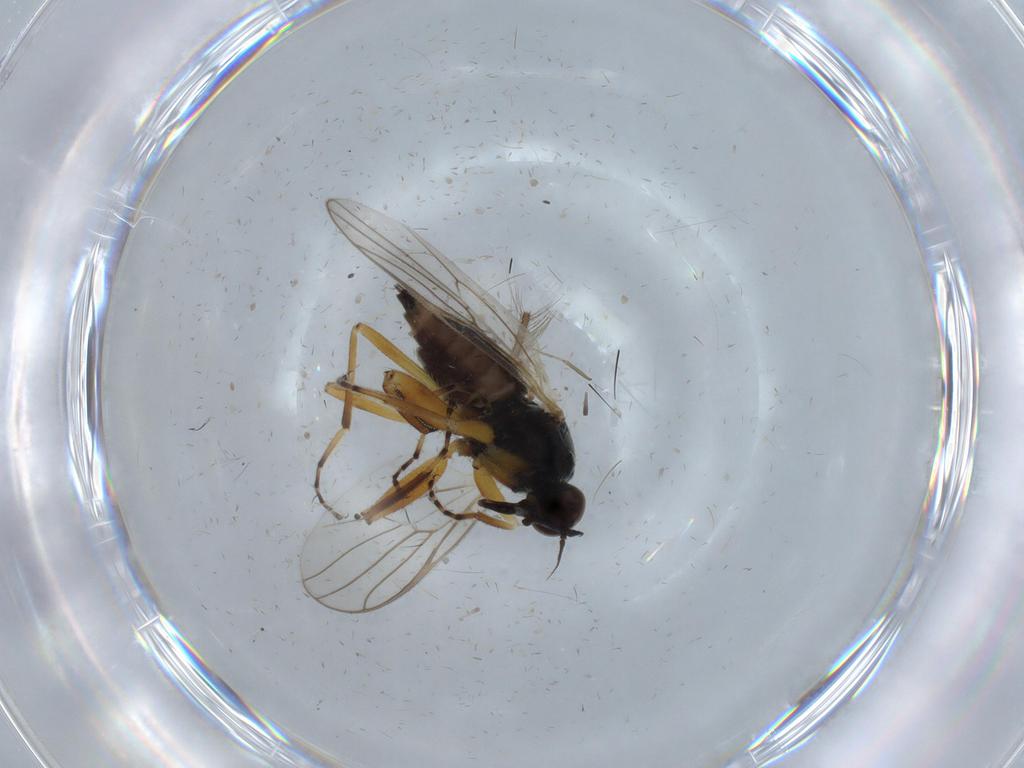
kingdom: Animalia
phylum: Arthropoda
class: Insecta
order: Diptera
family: Hybotidae
